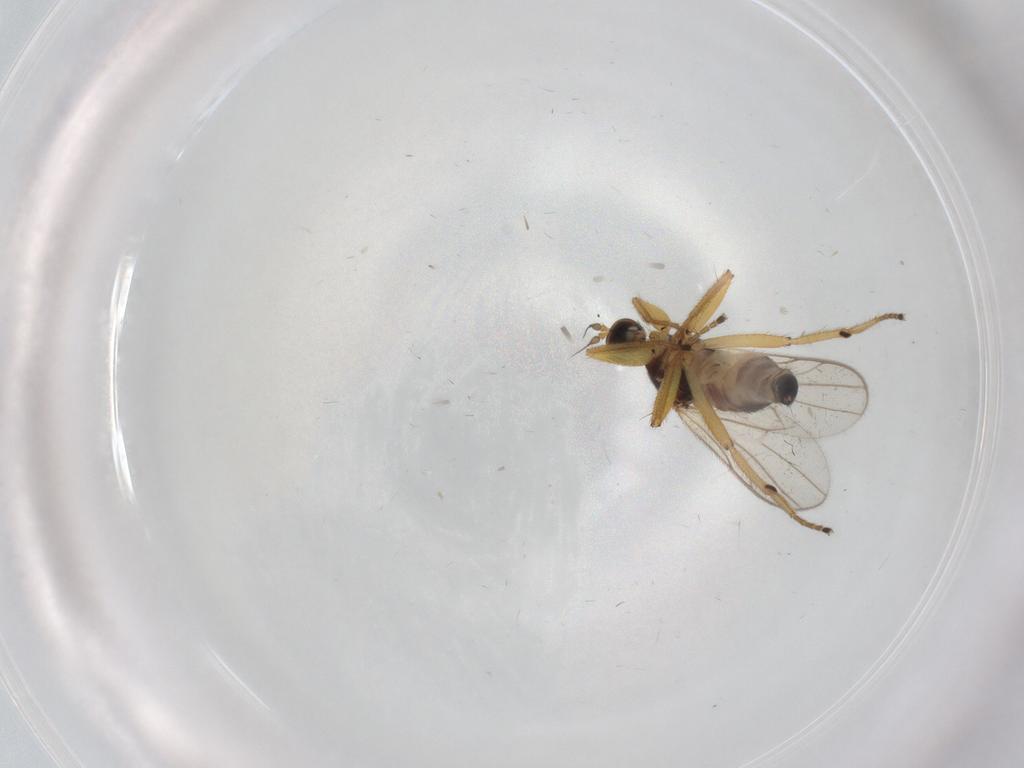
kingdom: Animalia
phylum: Arthropoda
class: Insecta
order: Diptera
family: Hybotidae
